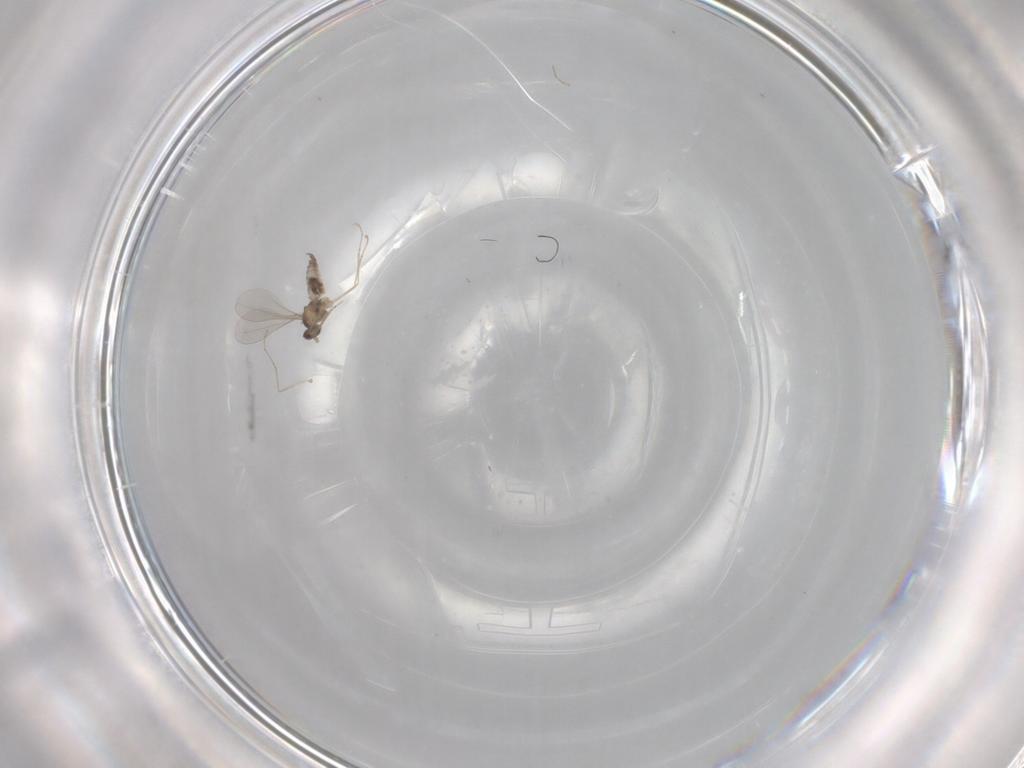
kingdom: Animalia
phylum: Arthropoda
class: Insecta
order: Diptera
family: Cecidomyiidae
